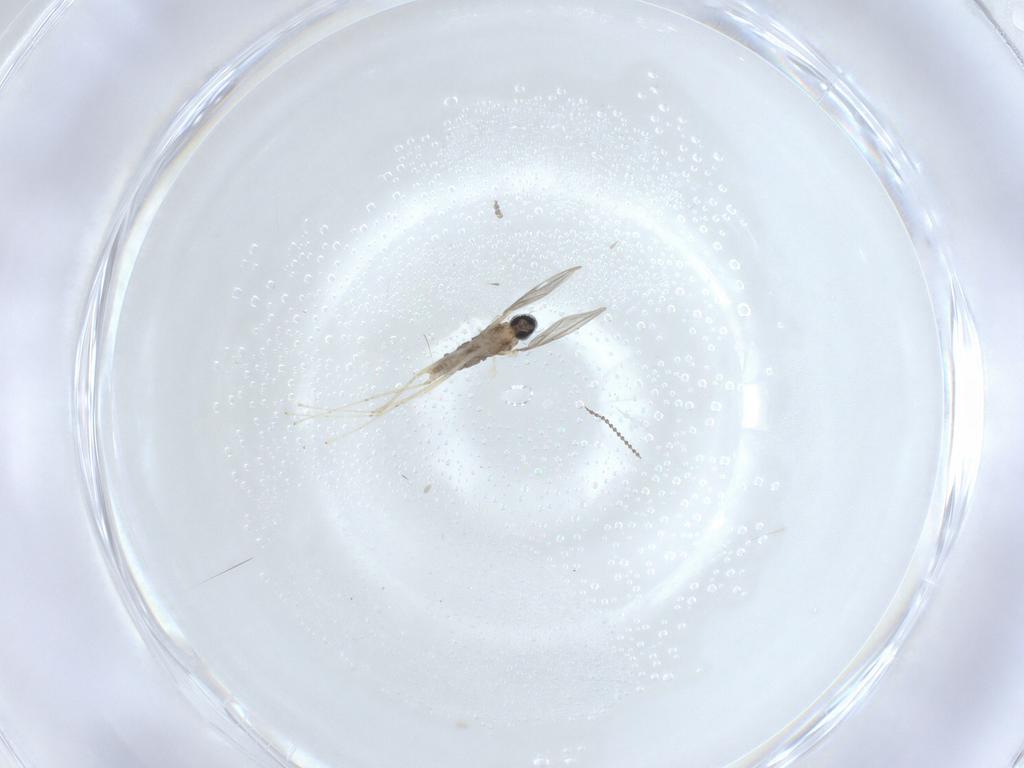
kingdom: Animalia
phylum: Arthropoda
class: Insecta
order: Diptera
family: Cecidomyiidae
